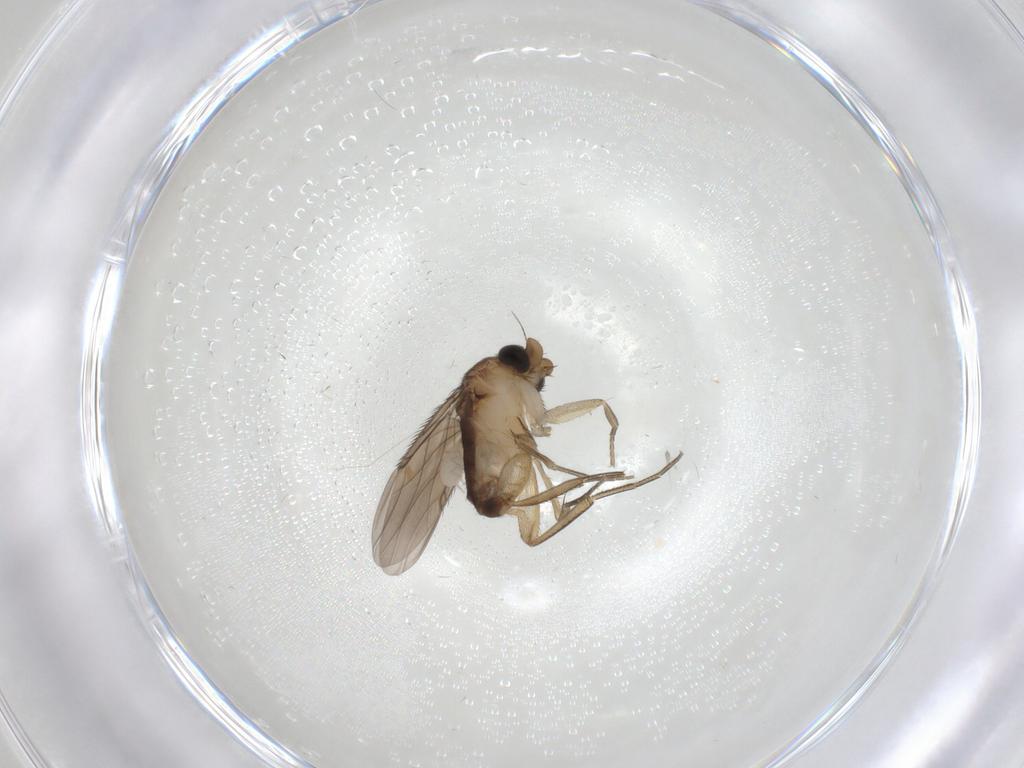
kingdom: Animalia
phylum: Arthropoda
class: Insecta
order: Diptera
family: Phoridae
